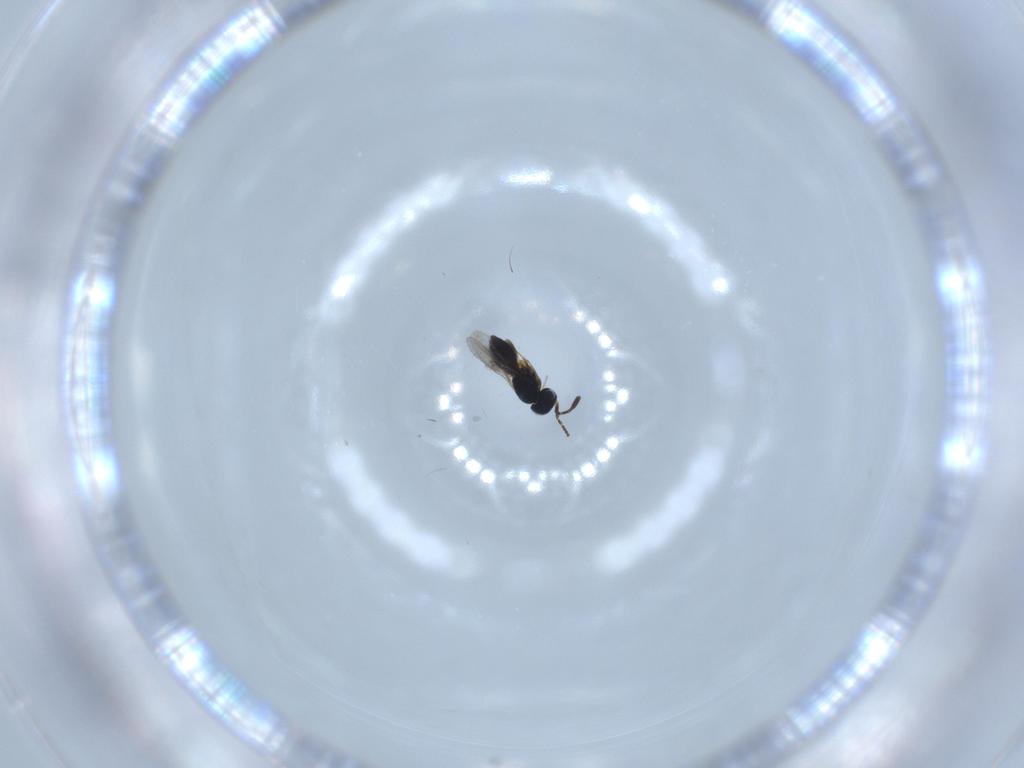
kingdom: Animalia
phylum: Arthropoda
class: Insecta
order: Hymenoptera
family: Scelionidae
